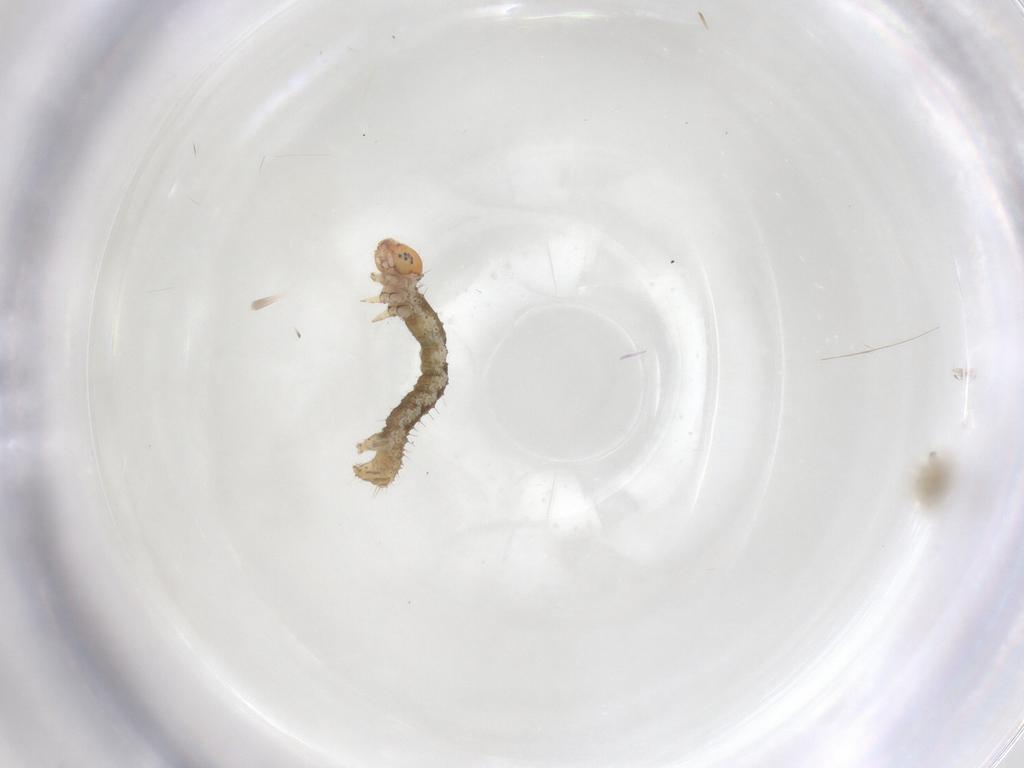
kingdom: Animalia
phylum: Arthropoda
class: Insecta
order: Lepidoptera
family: Gelechiidae
